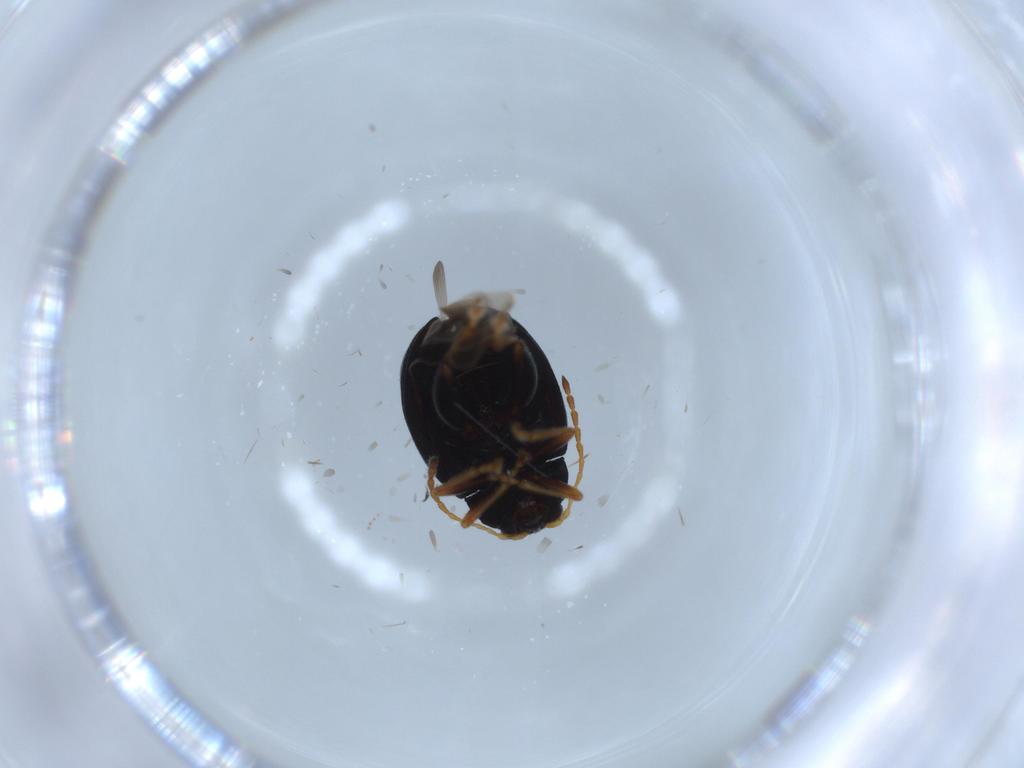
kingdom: Animalia
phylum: Arthropoda
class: Insecta
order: Coleoptera
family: Chrysomelidae
